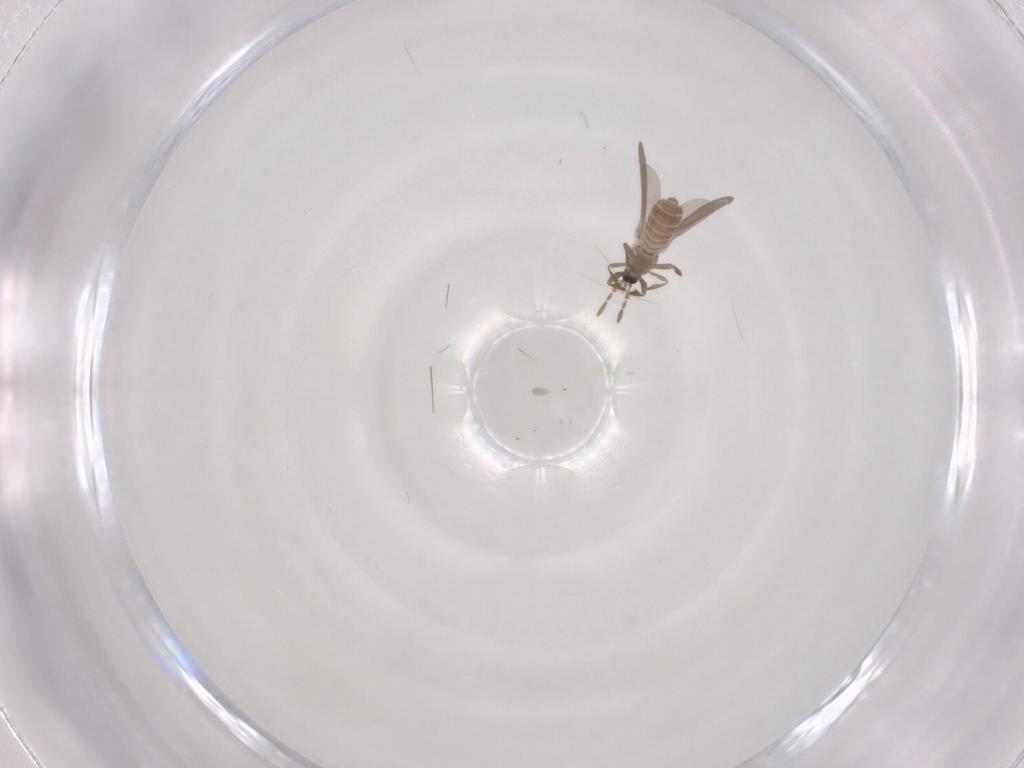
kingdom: Animalia
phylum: Arthropoda
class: Insecta
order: Hemiptera
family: Enicocephalidae
